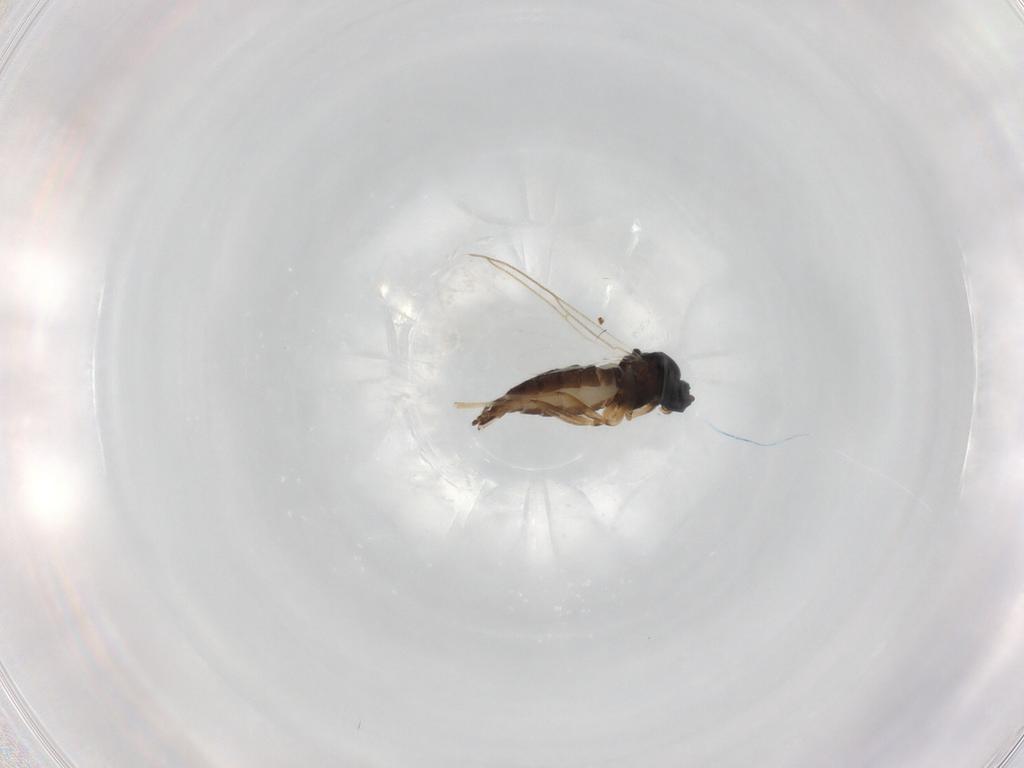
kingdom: Animalia
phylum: Arthropoda
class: Insecta
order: Diptera
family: Sciaridae
